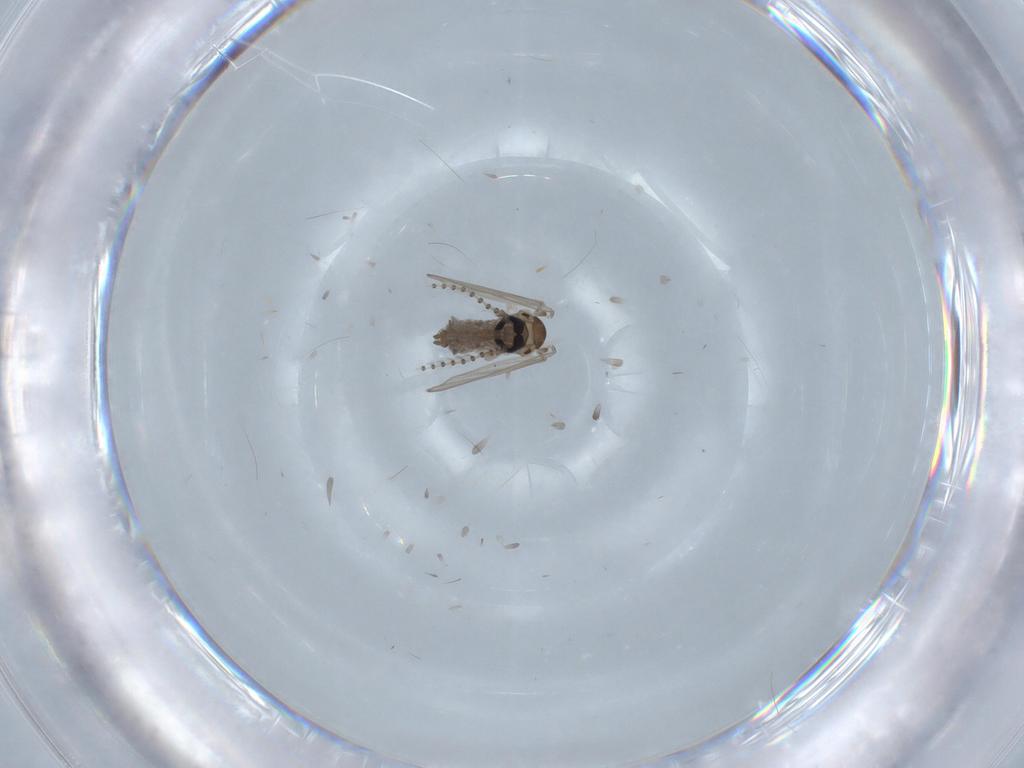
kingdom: Animalia
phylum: Arthropoda
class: Insecta
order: Diptera
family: Psychodidae
